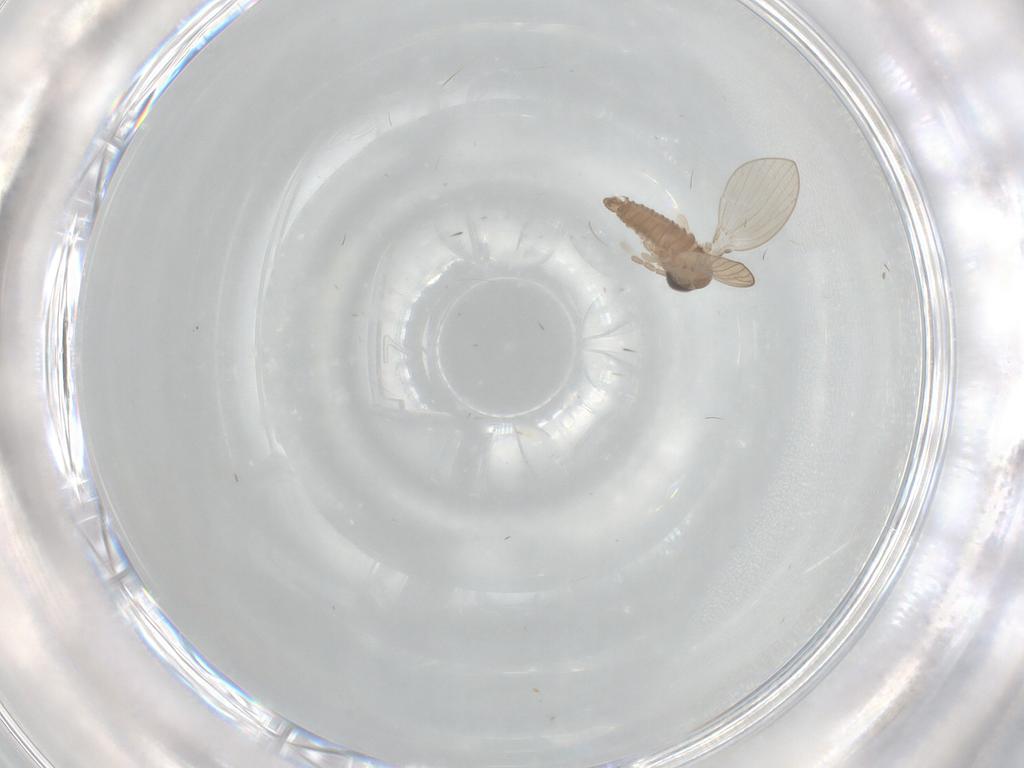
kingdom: Animalia
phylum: Arthropoda
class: Insecta
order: Diptera
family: Psychodidae
